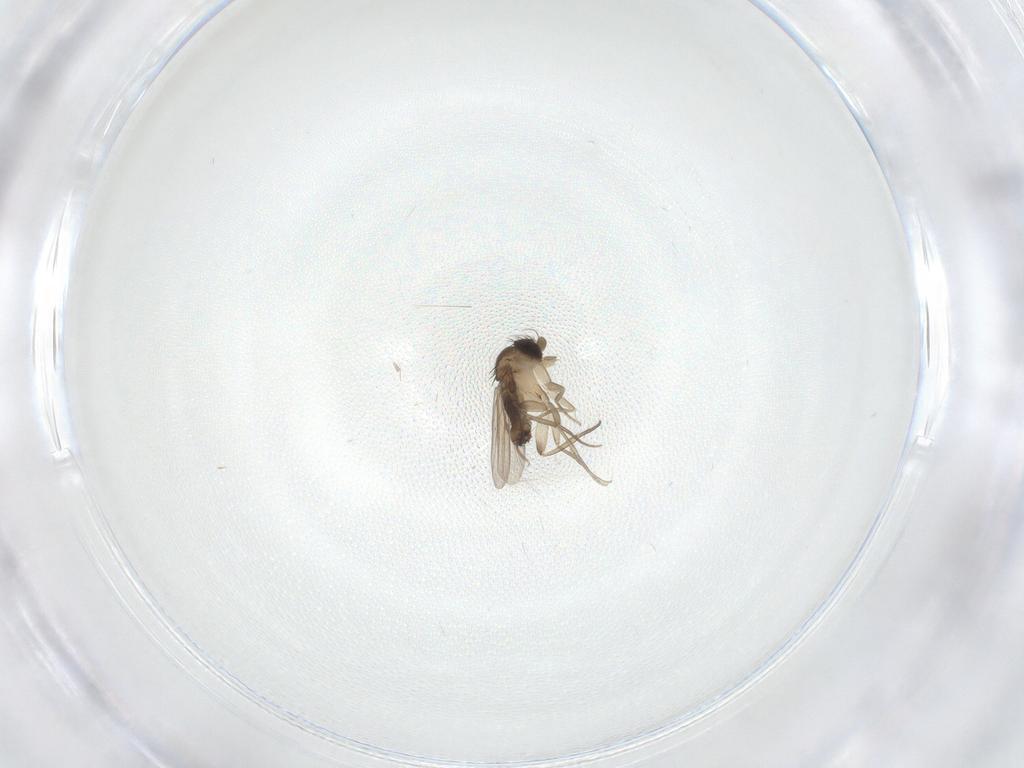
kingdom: Animalia
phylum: Arthropoda
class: Insecta
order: Diptera
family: Phoridae
